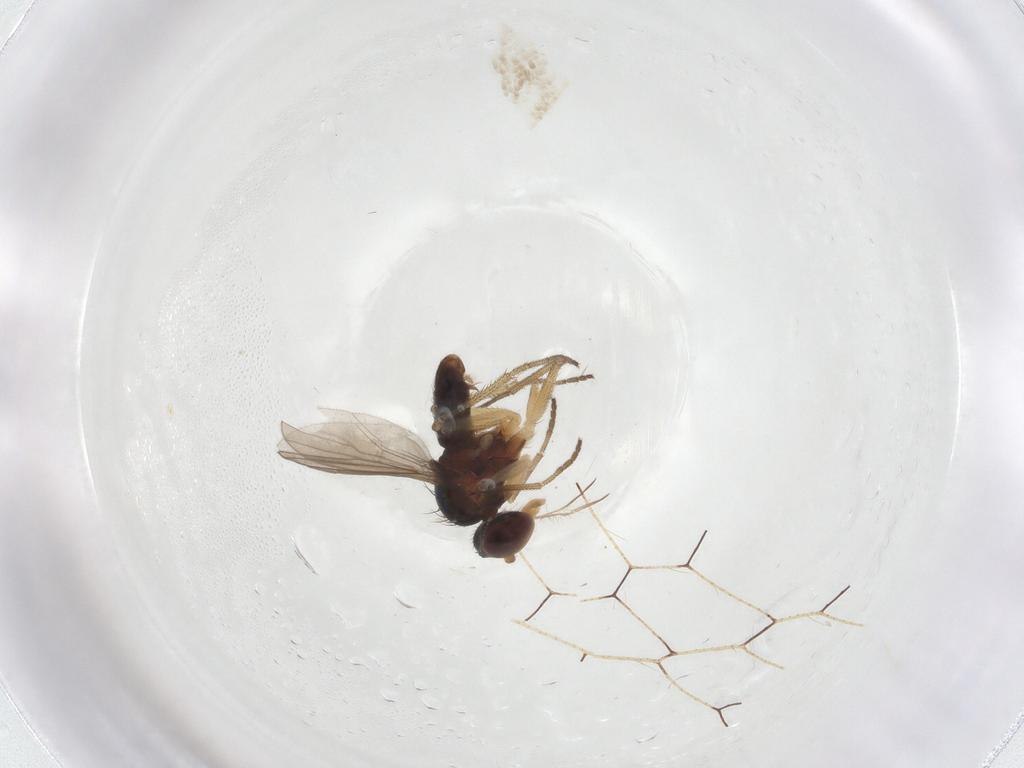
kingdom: Animalia
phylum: Arthropoda
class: Insecta
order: Diptera
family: Dolichopodidae
